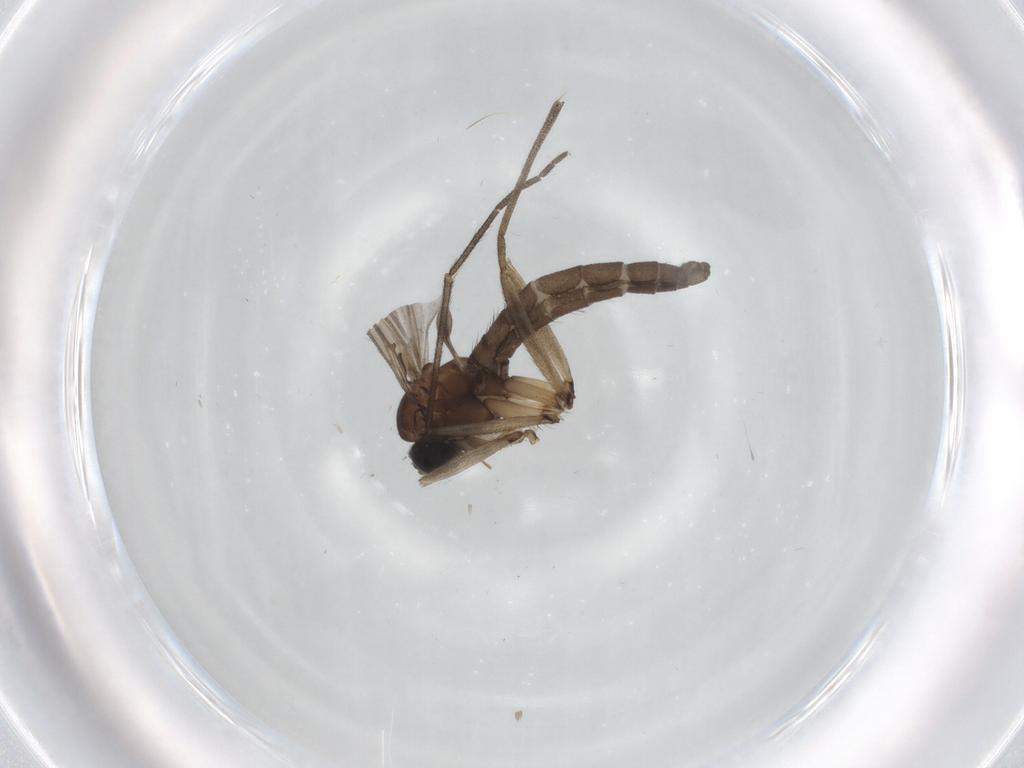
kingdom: Animalia
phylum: Arthropoda
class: Insecta
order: Diptera
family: Sciaridae
